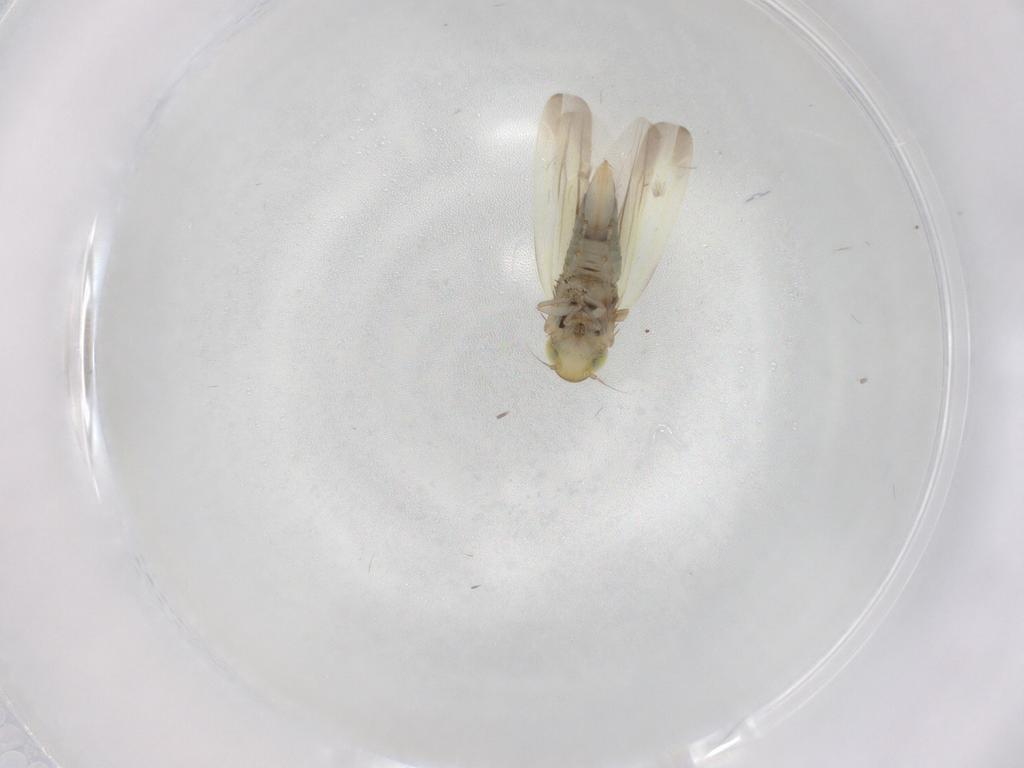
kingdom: Animalia
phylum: Arthropoda
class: Insecta
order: Hemiptera
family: Cicadellidae
